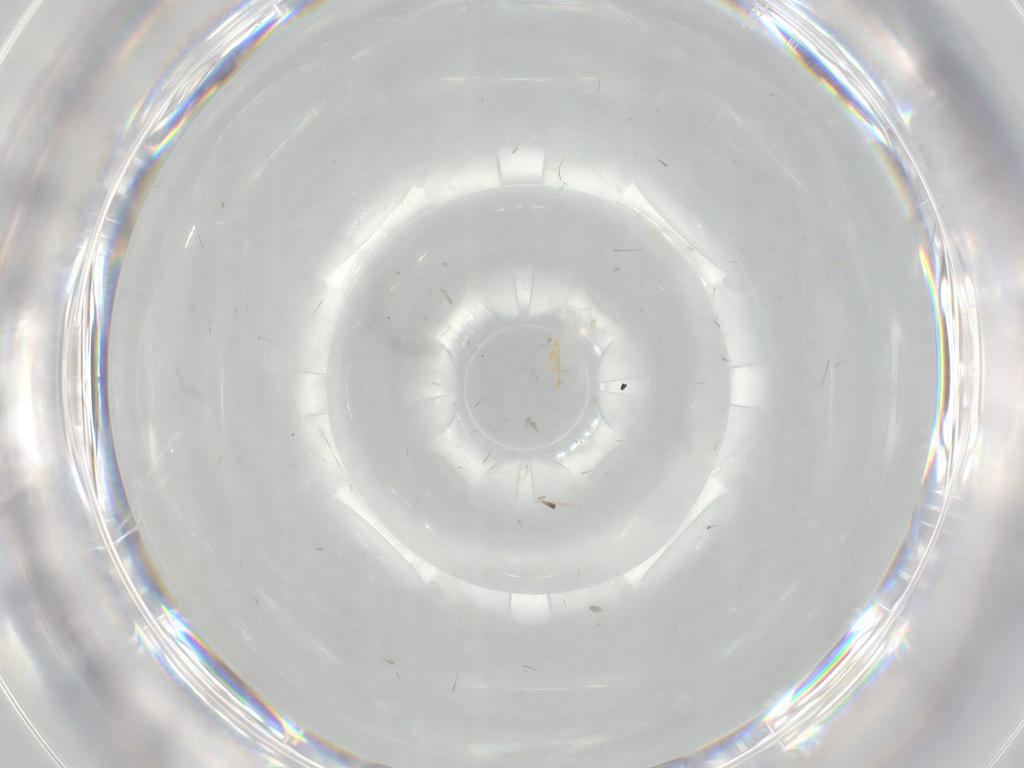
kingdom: Animalia
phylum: Arthropoda
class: Insecta
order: Diptera
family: Cecidomyiidae
